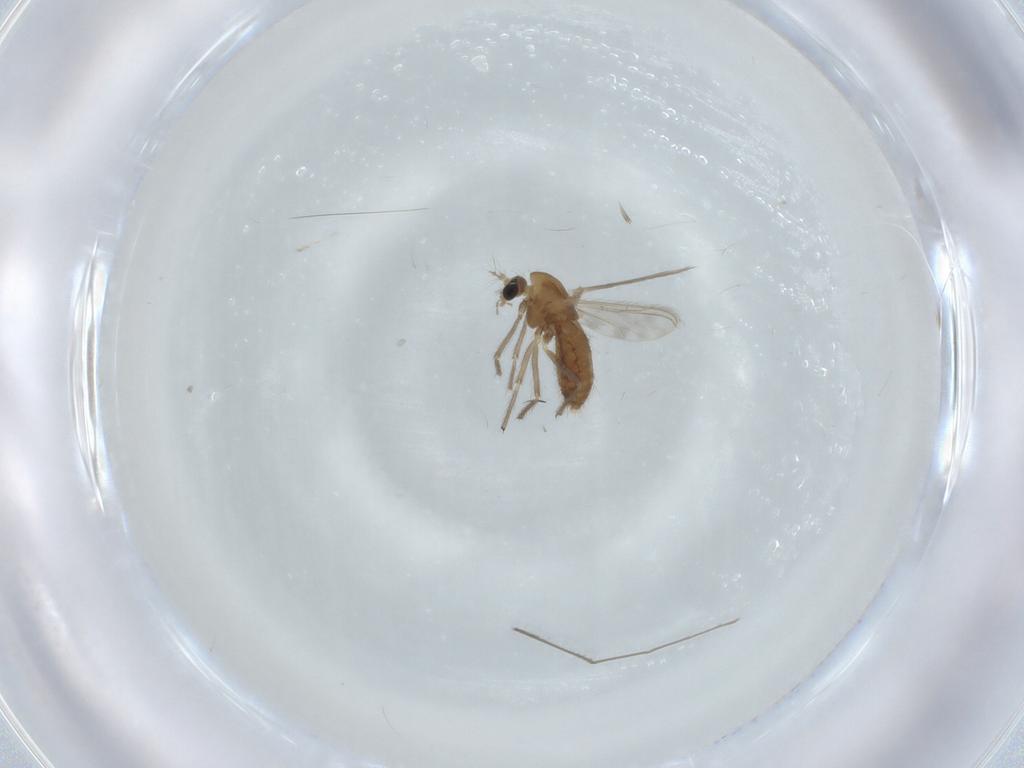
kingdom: Animalia
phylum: Arthropoda
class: Insecta
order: Diptera
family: Chironomidae
